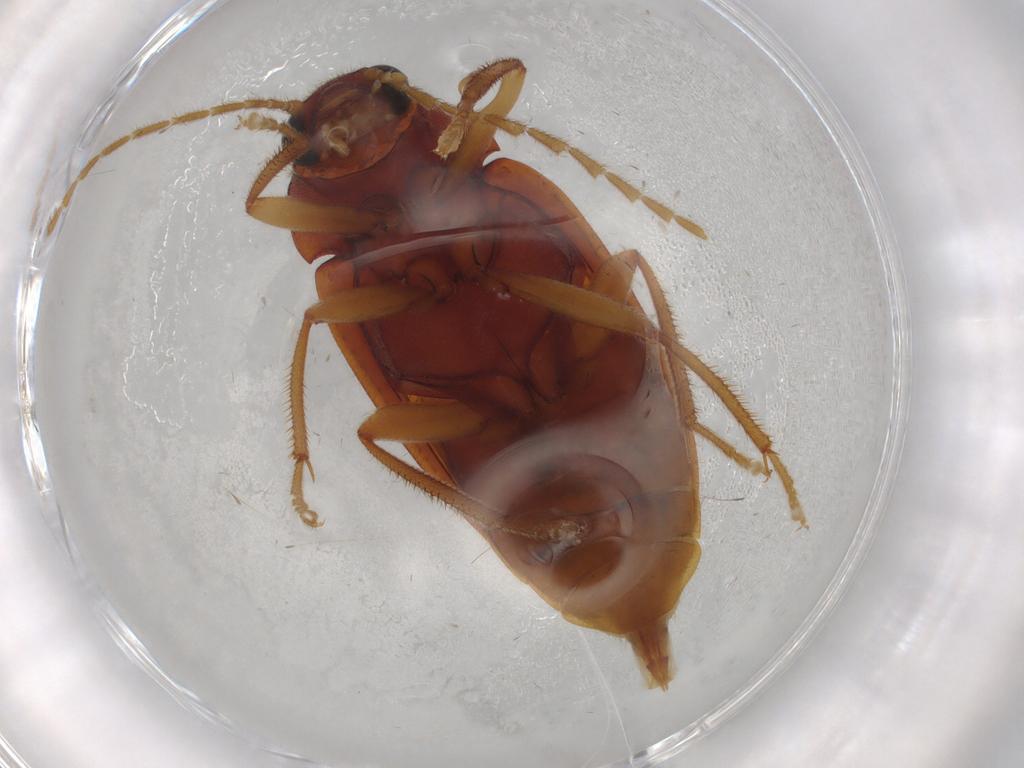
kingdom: Animalia
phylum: Arthropoda
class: Insecta
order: Coleoptera
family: Ptilodactylidae
